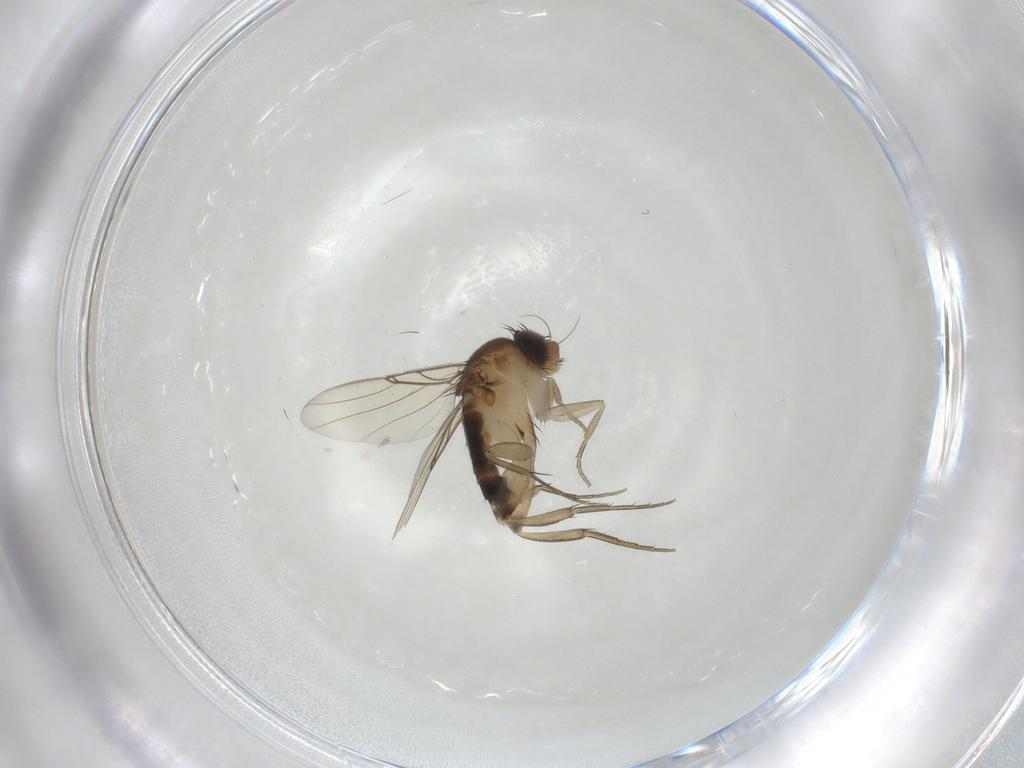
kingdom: Animalia
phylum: Arthropoda
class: Insecta
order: Diptera
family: Phoridae
